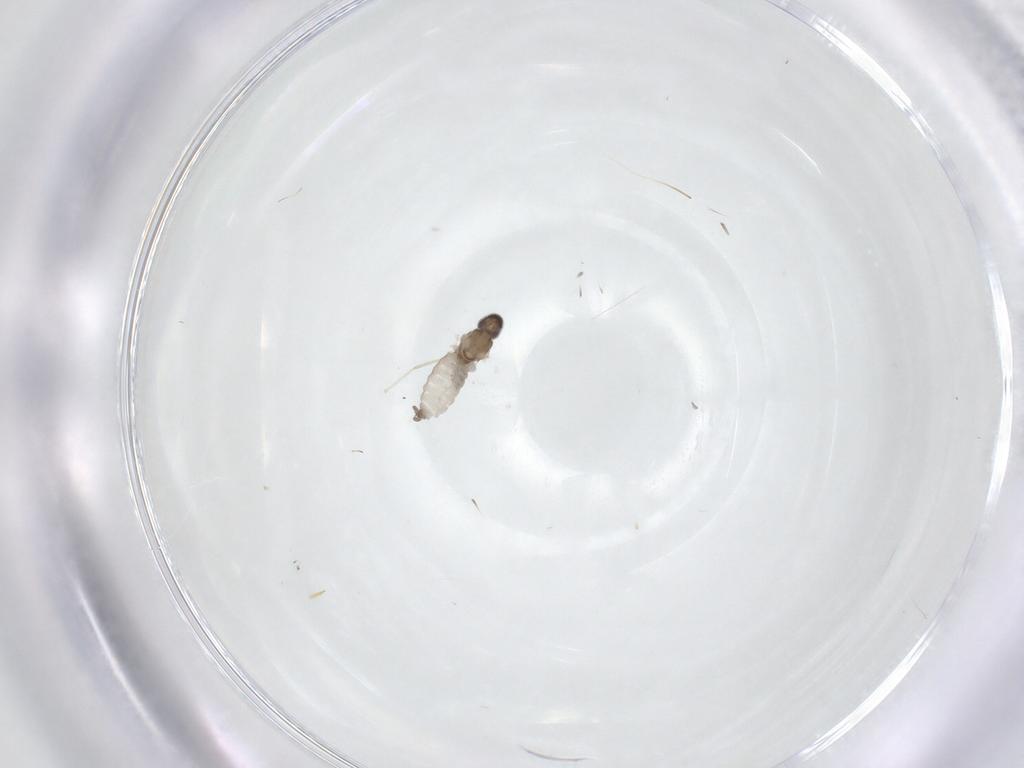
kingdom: Animalia
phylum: Arthropoda
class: Insecta
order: Diptera
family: Cecidomyiidae
